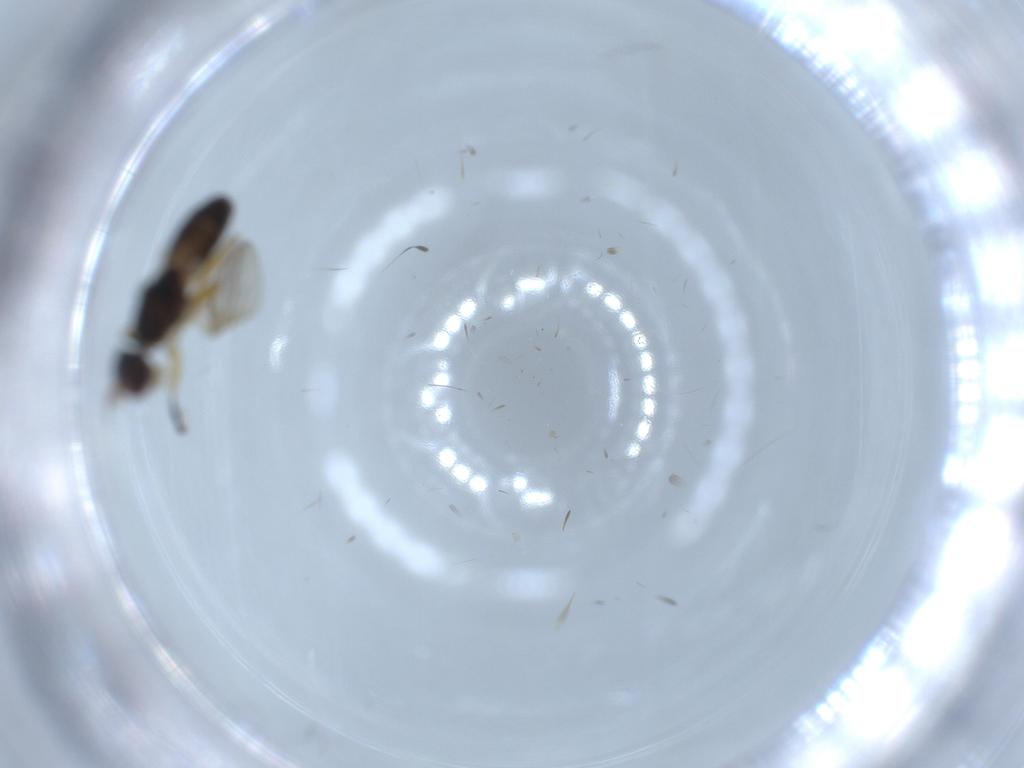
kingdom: Animalia
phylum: Arthropoda
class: Insecta
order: Diptera
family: Anthomyzidae
